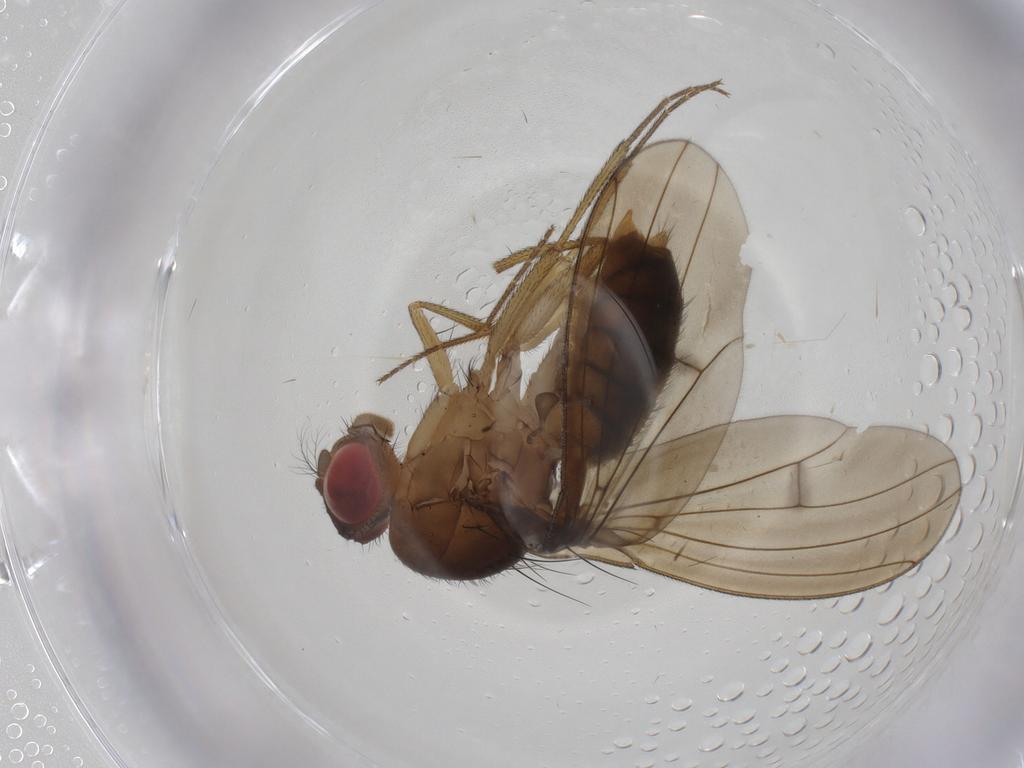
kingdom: Animalia
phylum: Arthropoda
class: Insecta
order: Diptera
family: Drosophilidae
